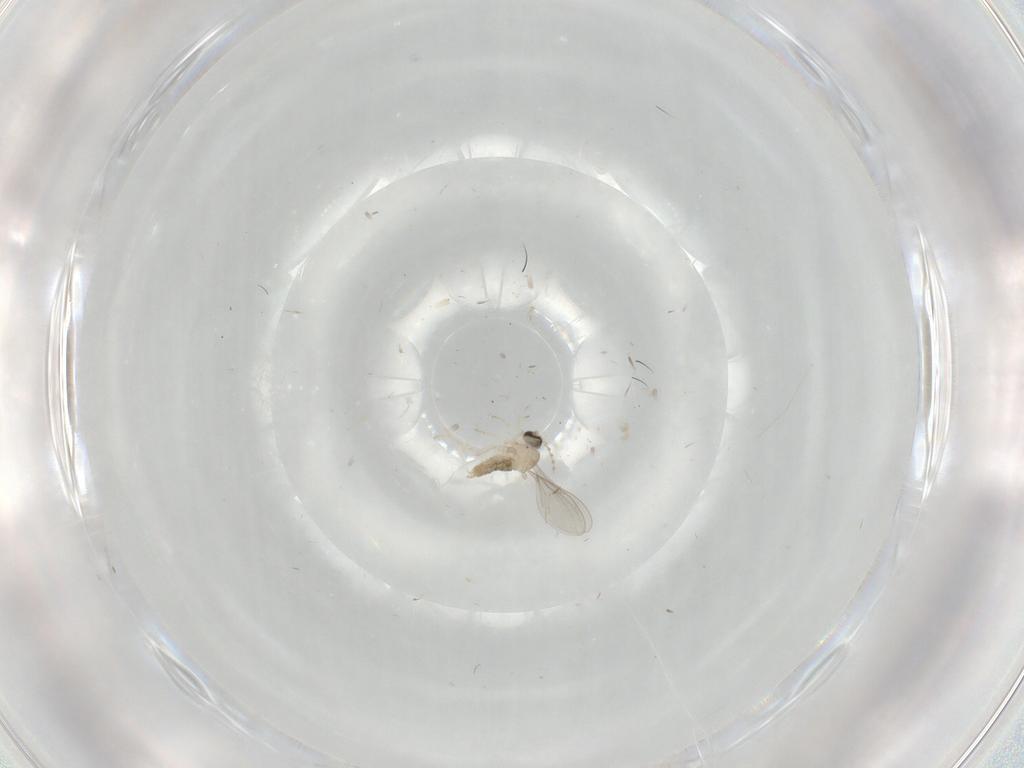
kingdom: Animalia
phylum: Arthropoda
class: Insecta
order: Diptera
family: Cecidomyiidae
